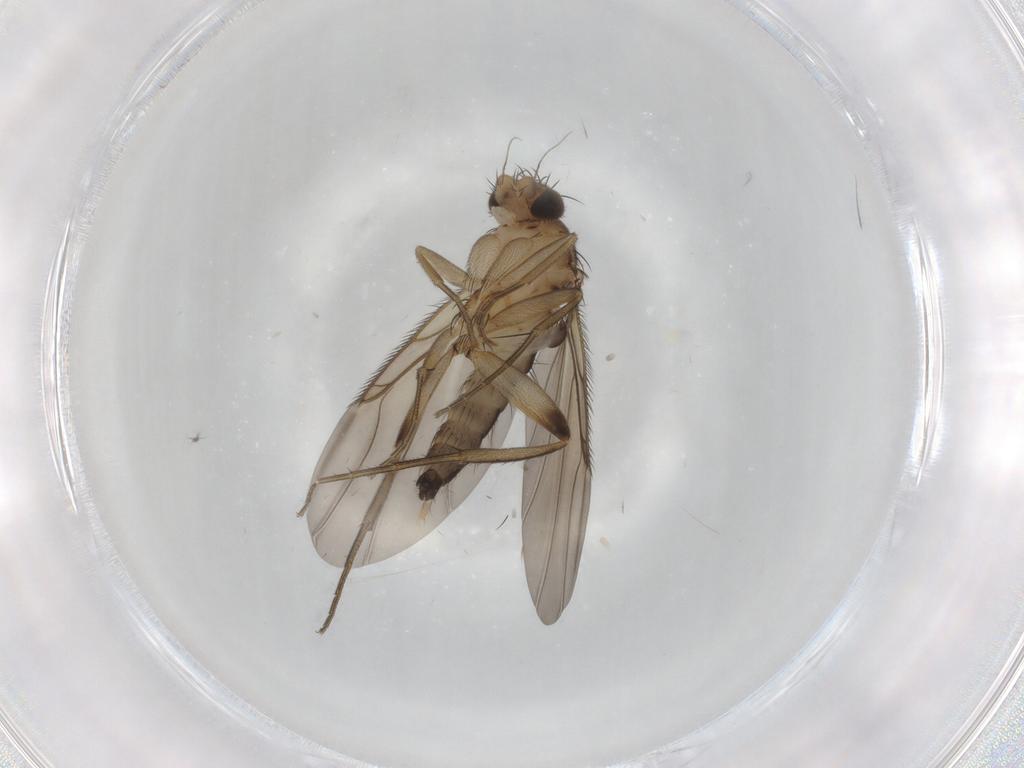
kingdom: Animalia
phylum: Arthropoda
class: Insecta
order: Diptera
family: Phoridae
